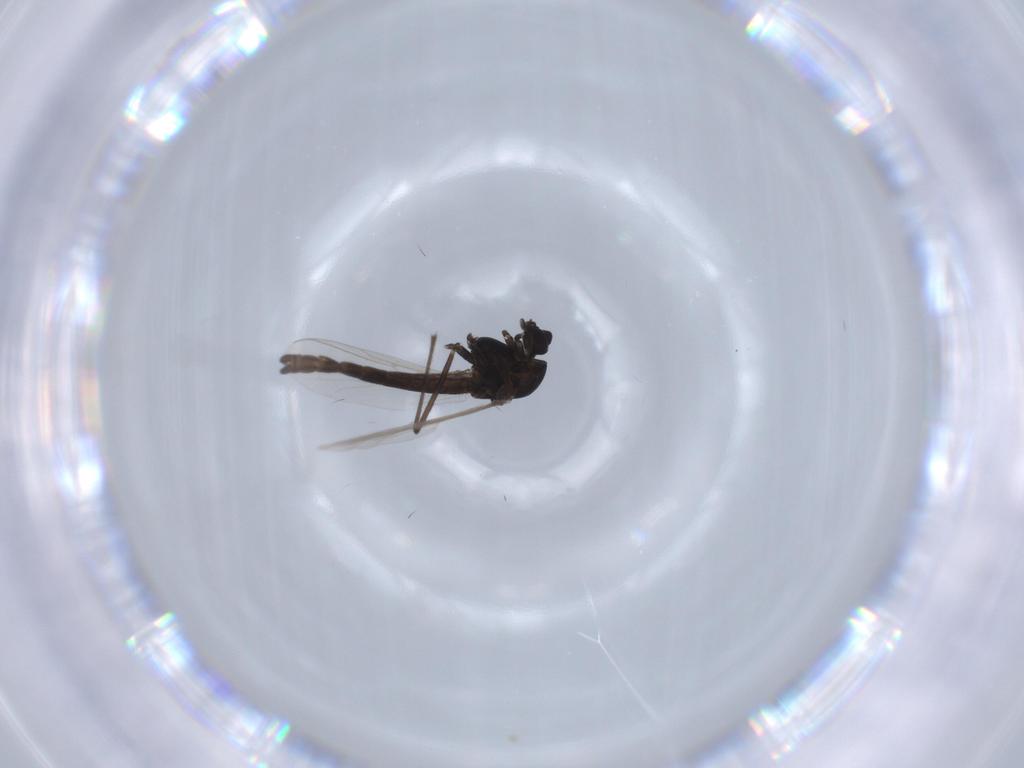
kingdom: Animalia
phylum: Arthropoda
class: Insecta
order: Diptera
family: Chironomidae
